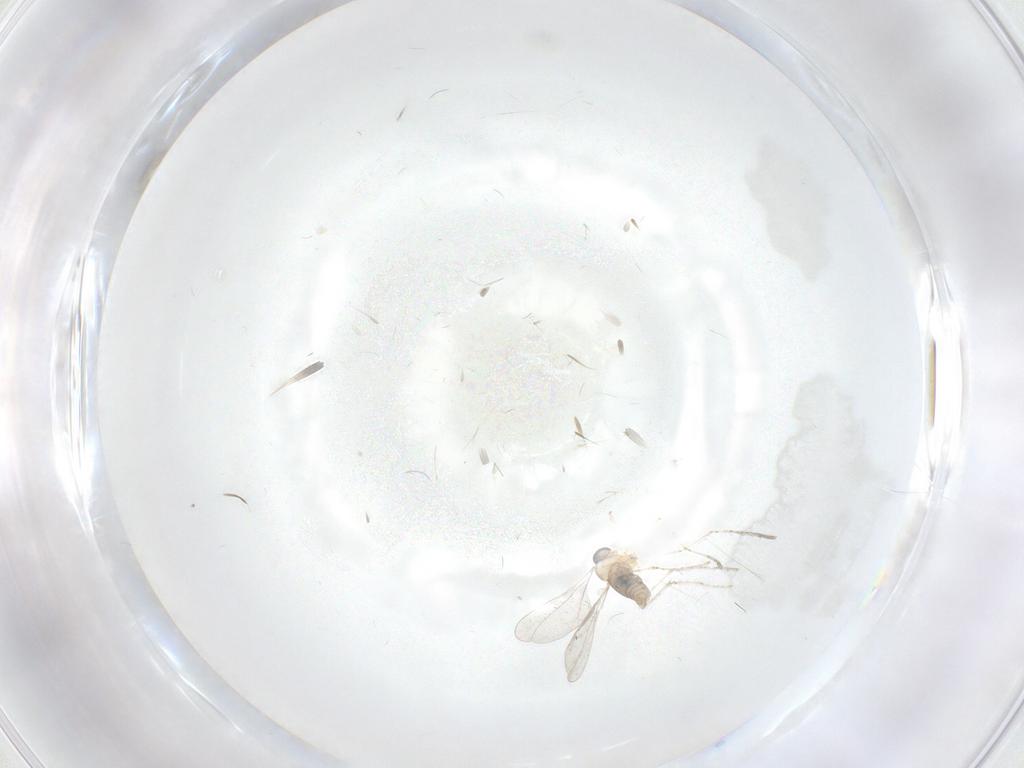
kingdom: Animalia
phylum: Arthropoda
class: Insecta
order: Diptera
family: Cecidomyiidae
